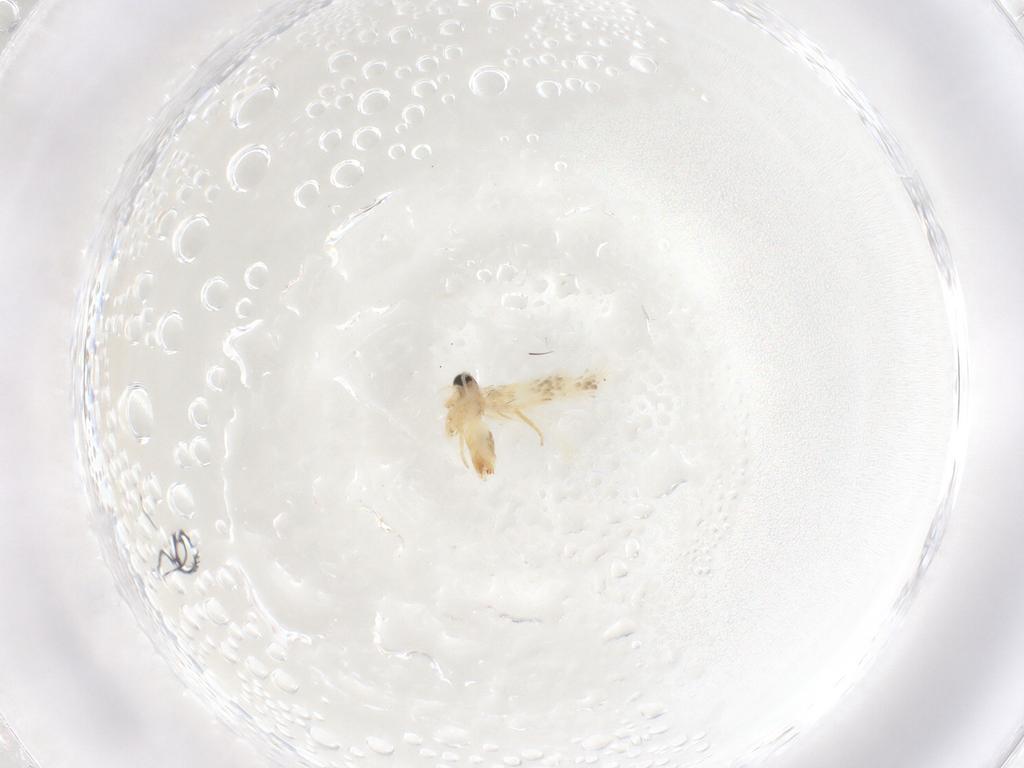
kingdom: Animalia
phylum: Arthropoda
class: Insecta
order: Lepidoptera
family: Crambidae
